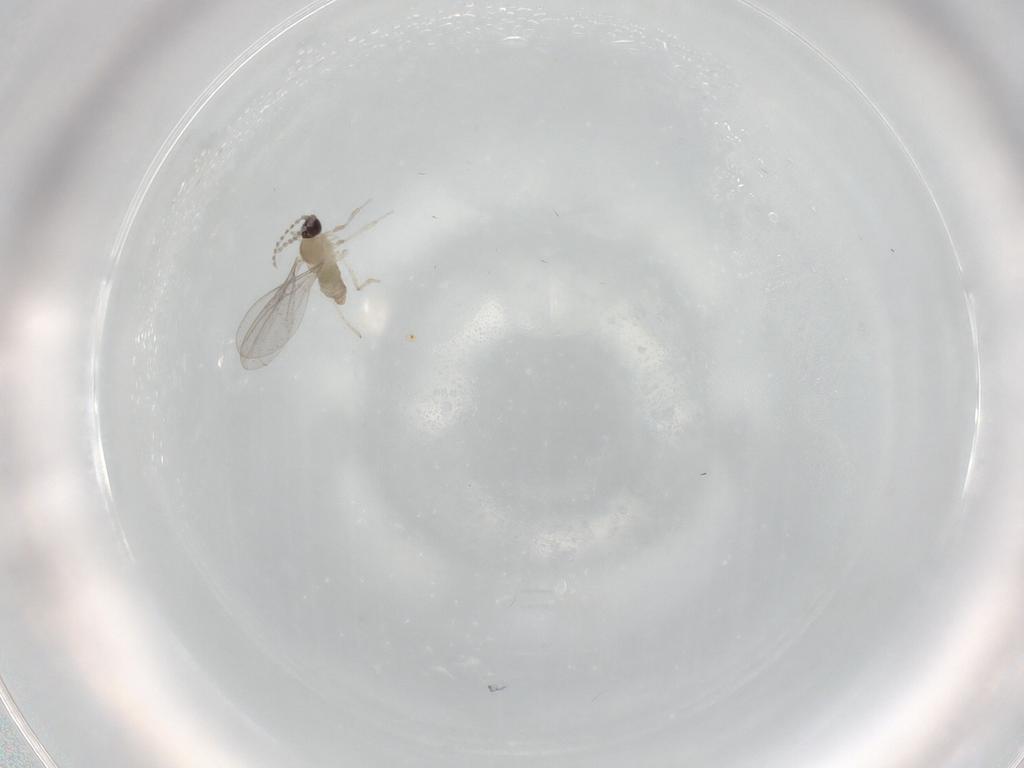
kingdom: Animalia
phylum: Arthropoda
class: Insecta
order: Diptera
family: Cecidomyiidae
